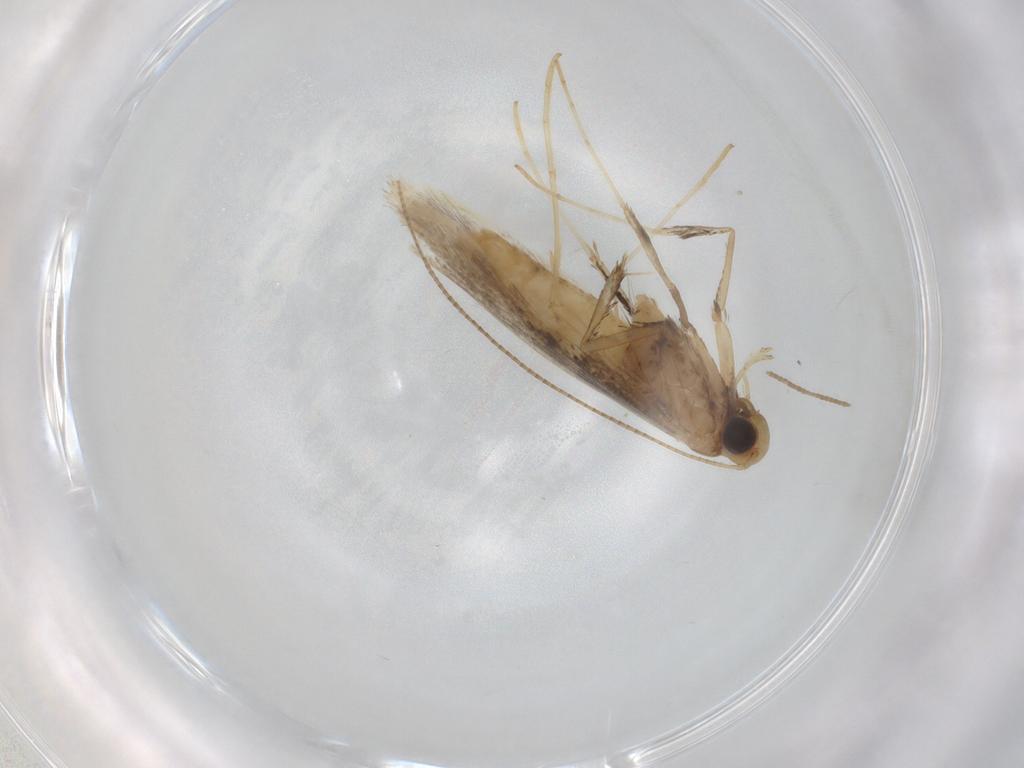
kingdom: Animalia
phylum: Arthropoda
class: Insecta
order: Lepidoptera
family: Gracillariidae
